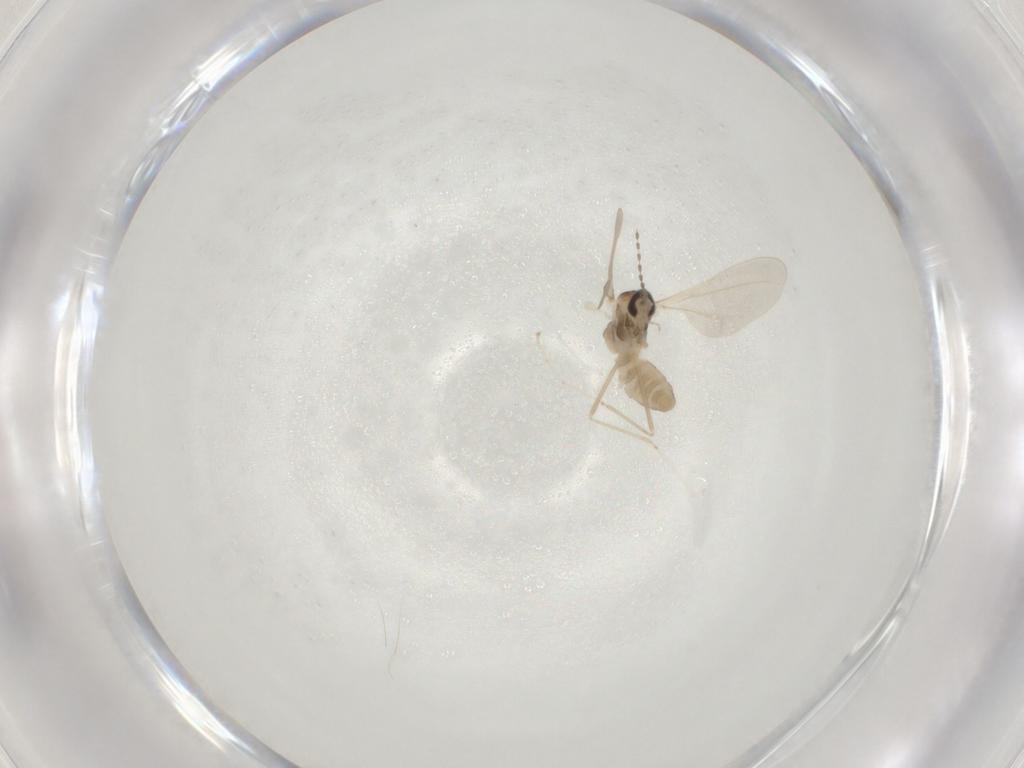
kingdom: Animalia
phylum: Arthropoda
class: Insecta
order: Diptera
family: Cecidomyiidae
